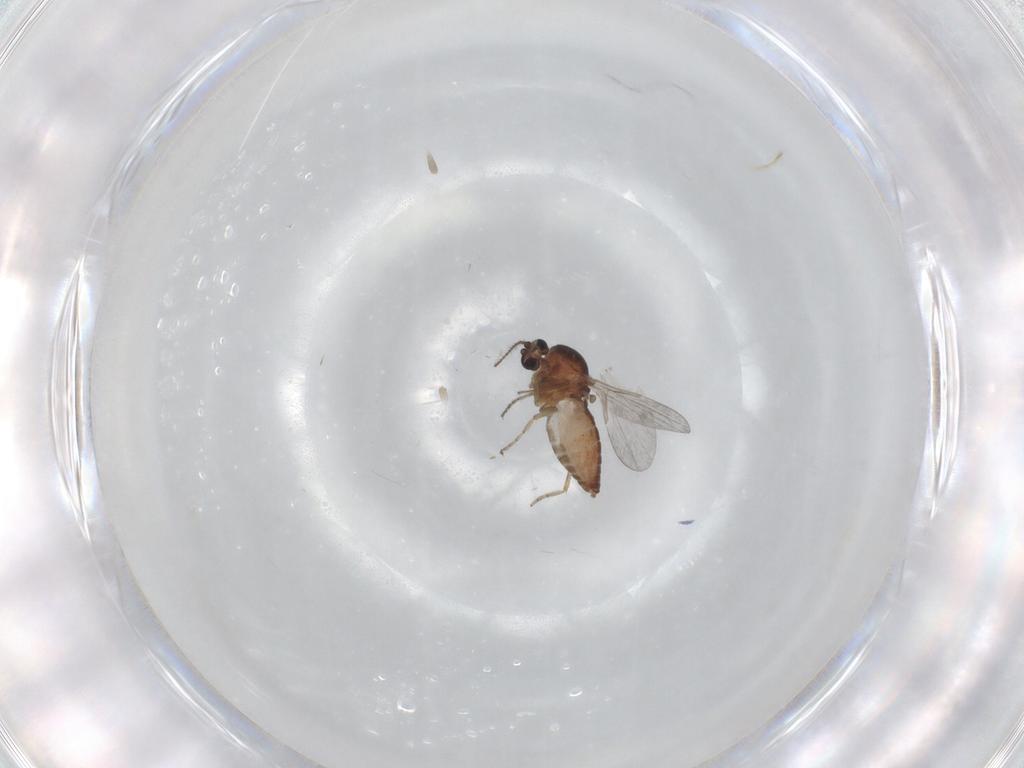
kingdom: Animalia
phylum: Arthropoda
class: Insecta
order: Diptera
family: Ceratopogonidae
